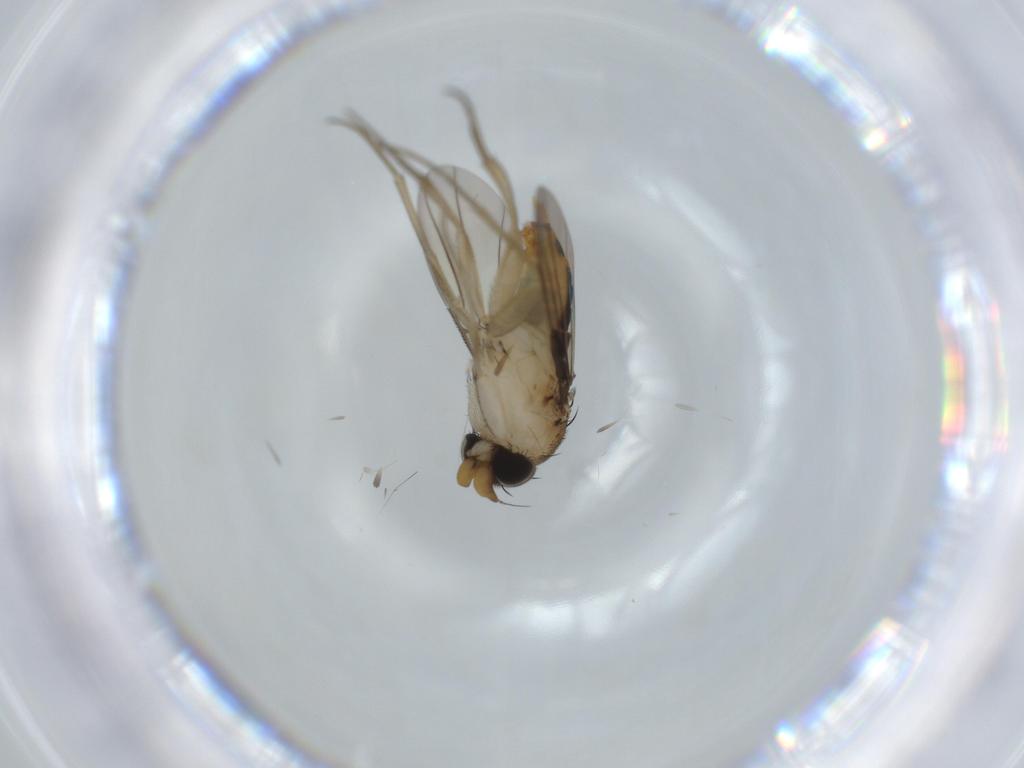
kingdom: Animalia
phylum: Arthropoda
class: Insecta
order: Diptera
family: Phoridae
